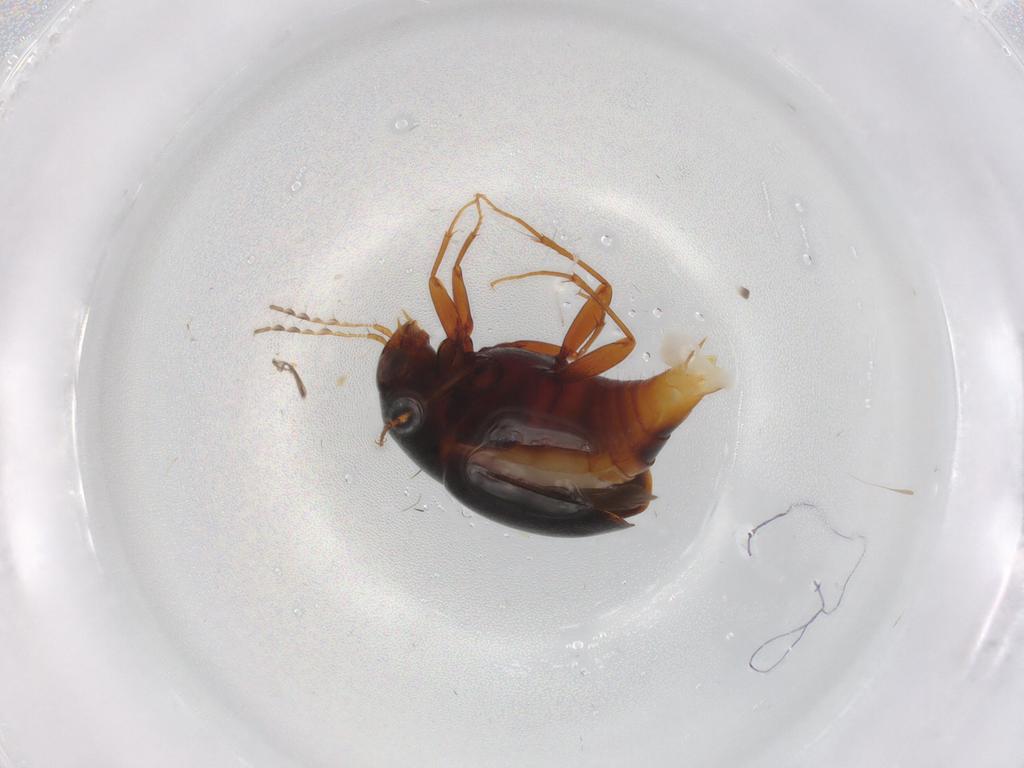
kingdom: Animalia
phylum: Arthropoda
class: Insecta
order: Coleoptera
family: Staphylinidae
